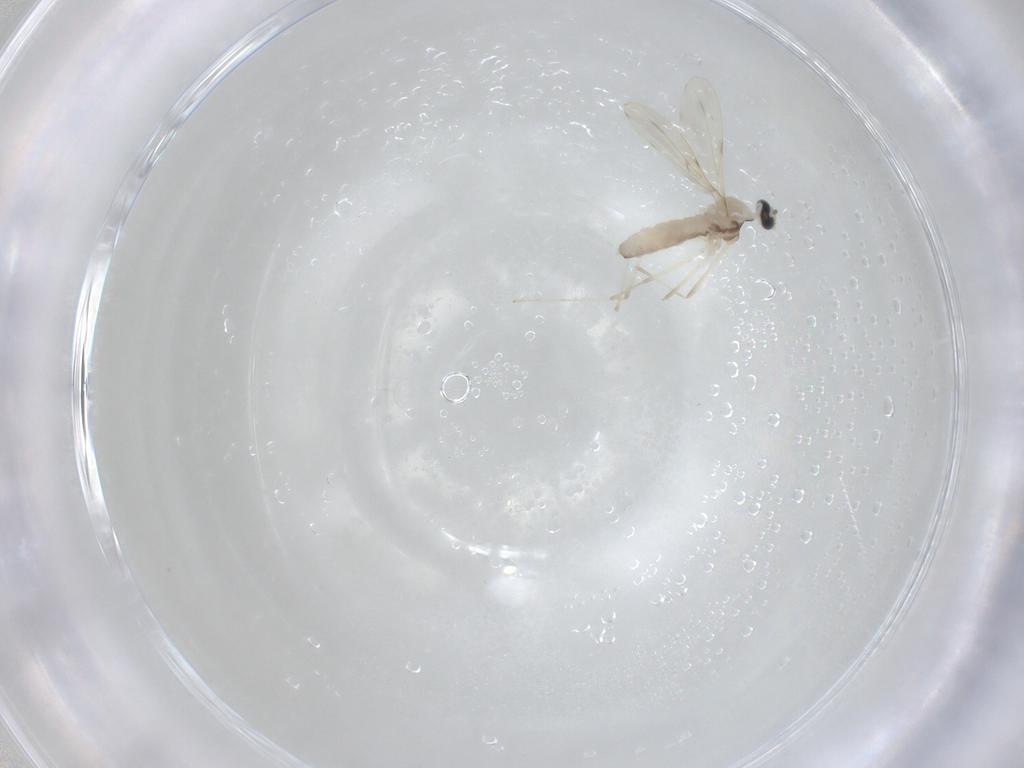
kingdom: Animalia
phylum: Arthropoda
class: Insecta
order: Diptera
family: Cecidomyiidae
